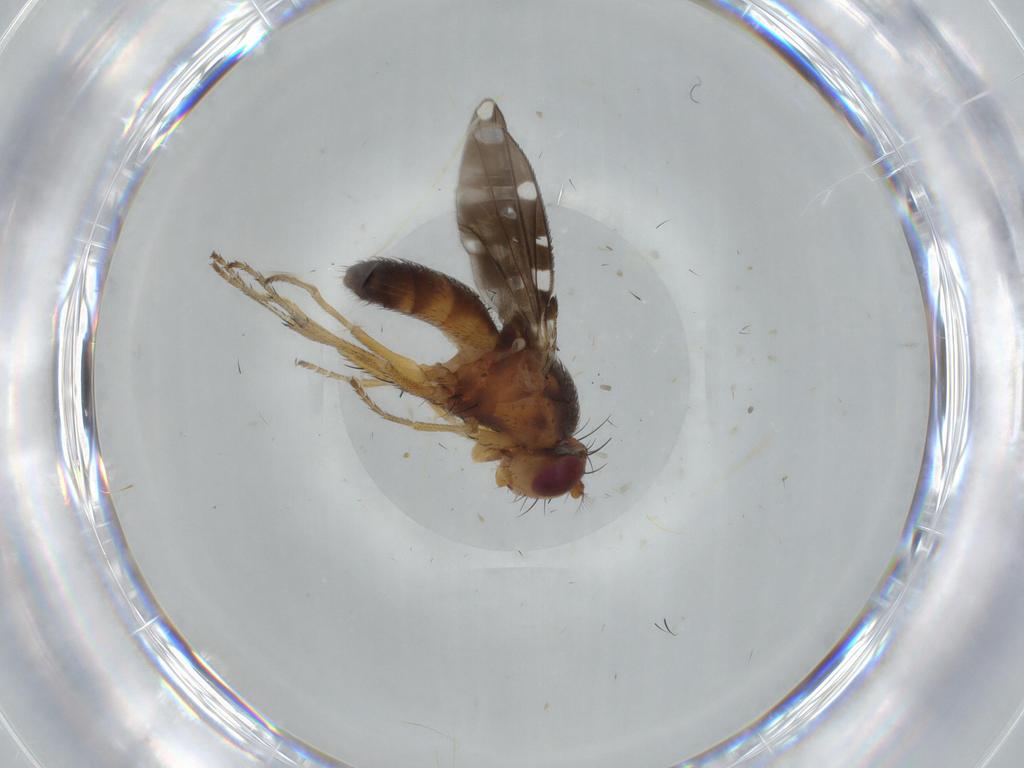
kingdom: Animalia
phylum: Arthropoda
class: Insecta
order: Diptera
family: Ephydridae
